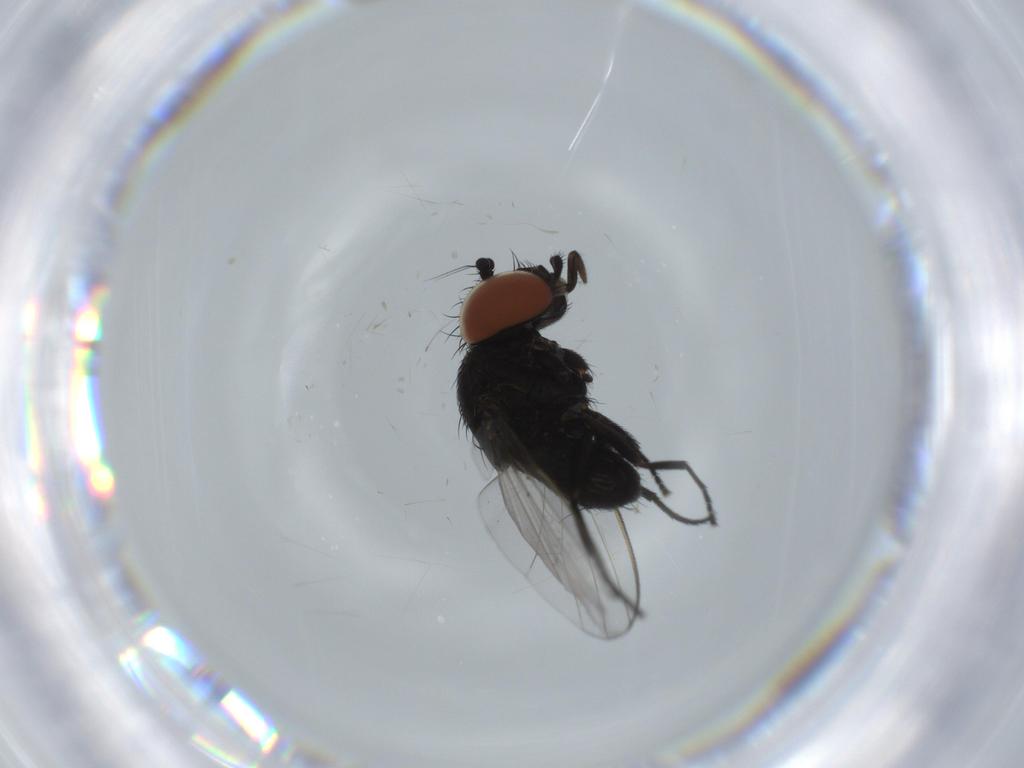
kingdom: Animalia
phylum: Arthropoda
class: Insecta
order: Diptera
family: Milichiidae
